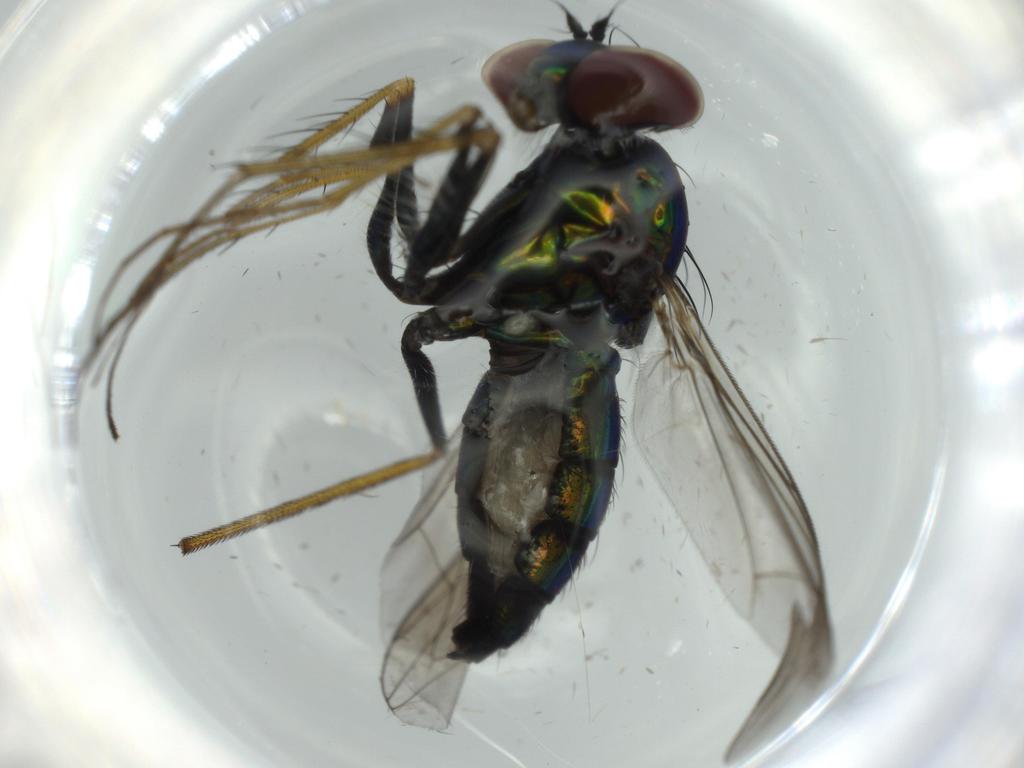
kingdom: Animalia
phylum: Arthropoda
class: Insecta
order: Diptera
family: Dolichopodidae
